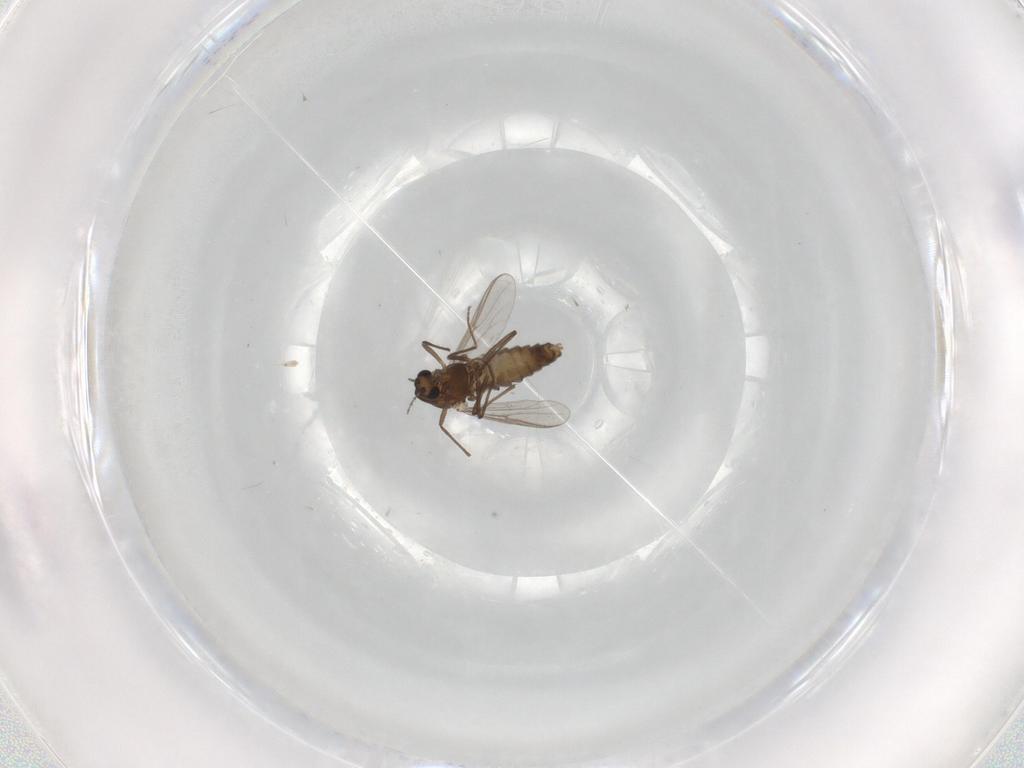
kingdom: Animalia
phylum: Arthropoda
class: Insecta
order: Diptera
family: Chironomidae
